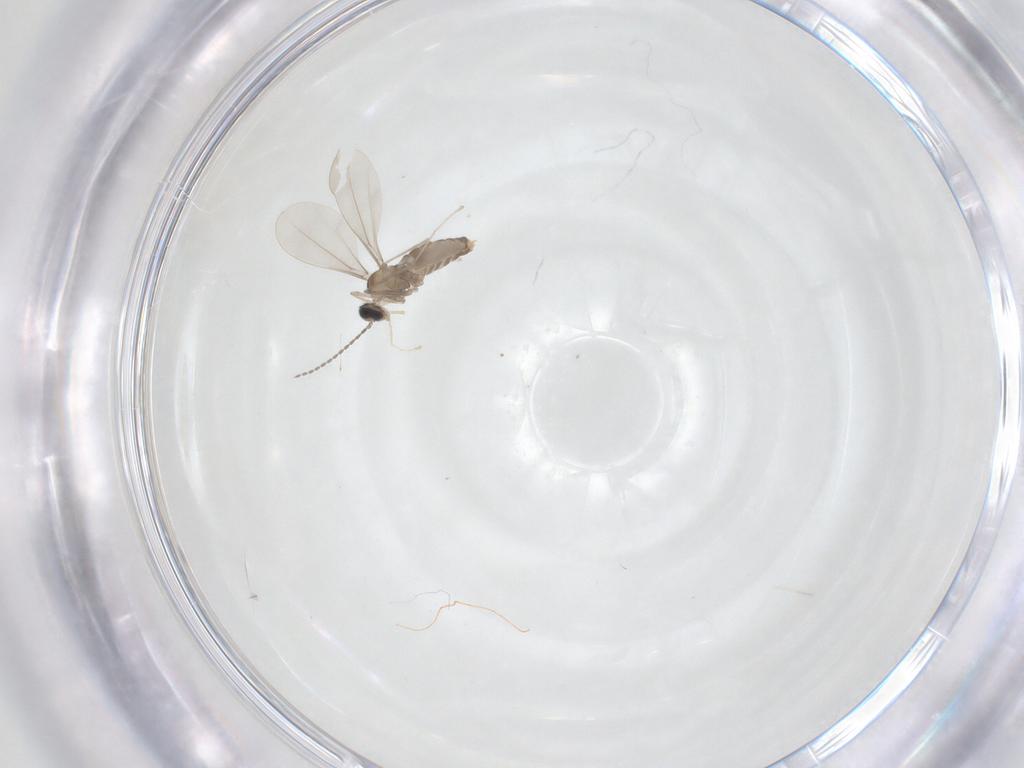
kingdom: Animalia
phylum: Arthropoda
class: Insecta
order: Diptera
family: Cecidomyiidae
